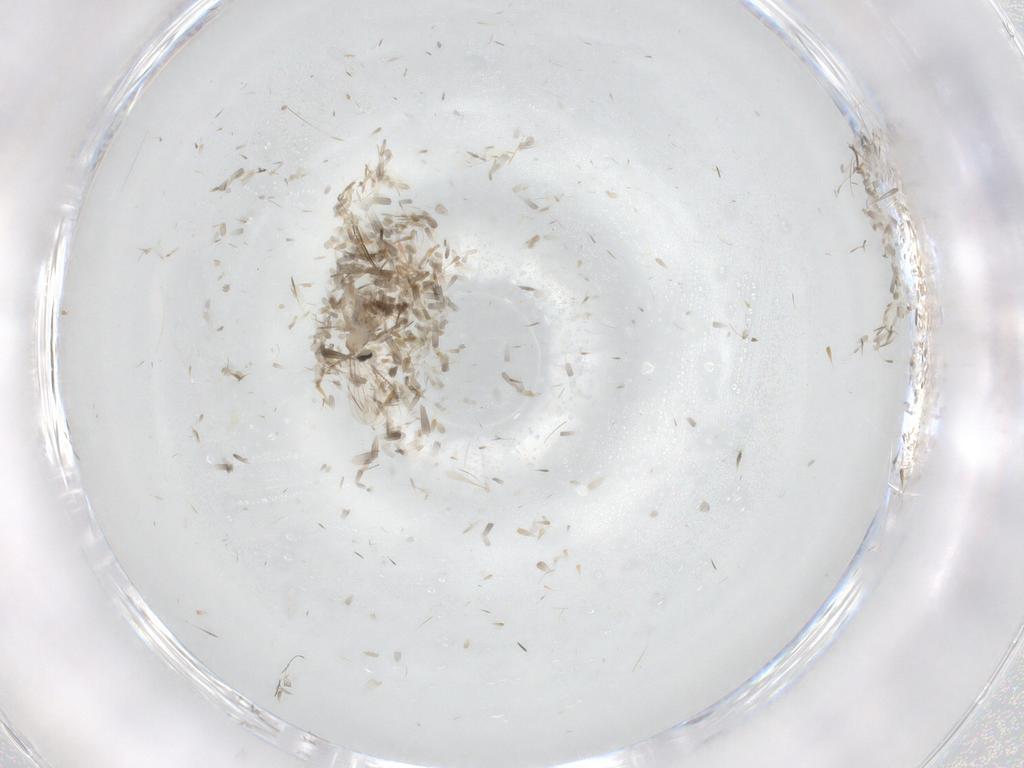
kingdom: Animalia
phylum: Arthropoda
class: Insecta
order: Diptera
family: Cecidomyiidae
